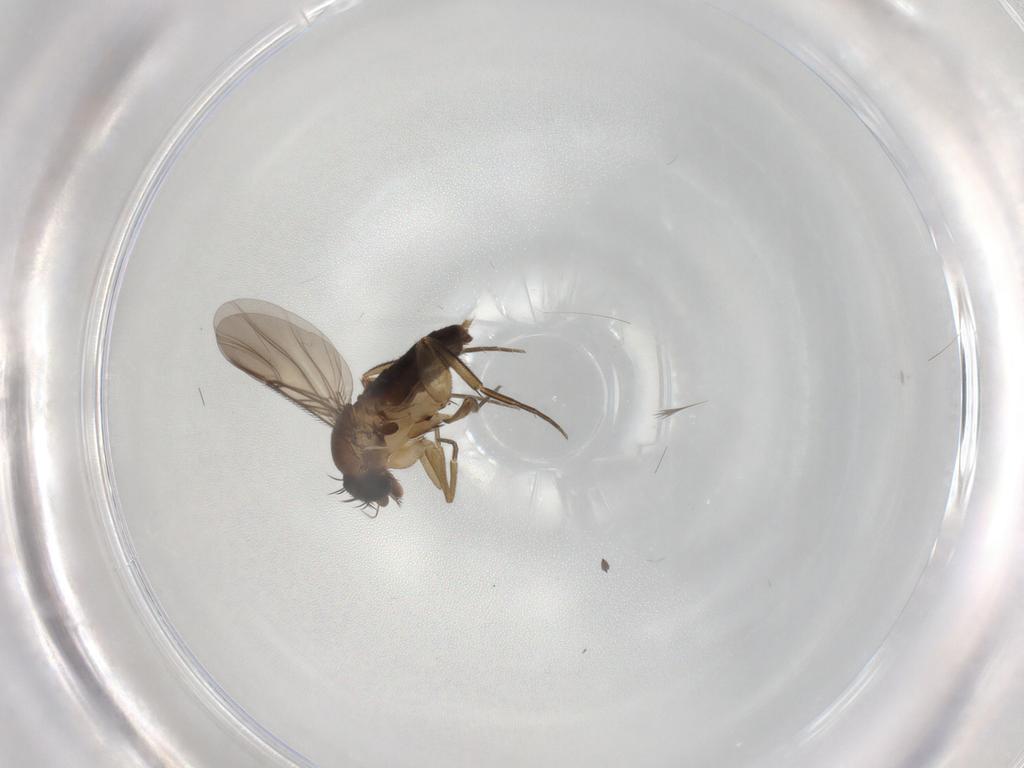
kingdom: Animalia
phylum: Arthropoda
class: Insecta
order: Diptera
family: Phoridae
